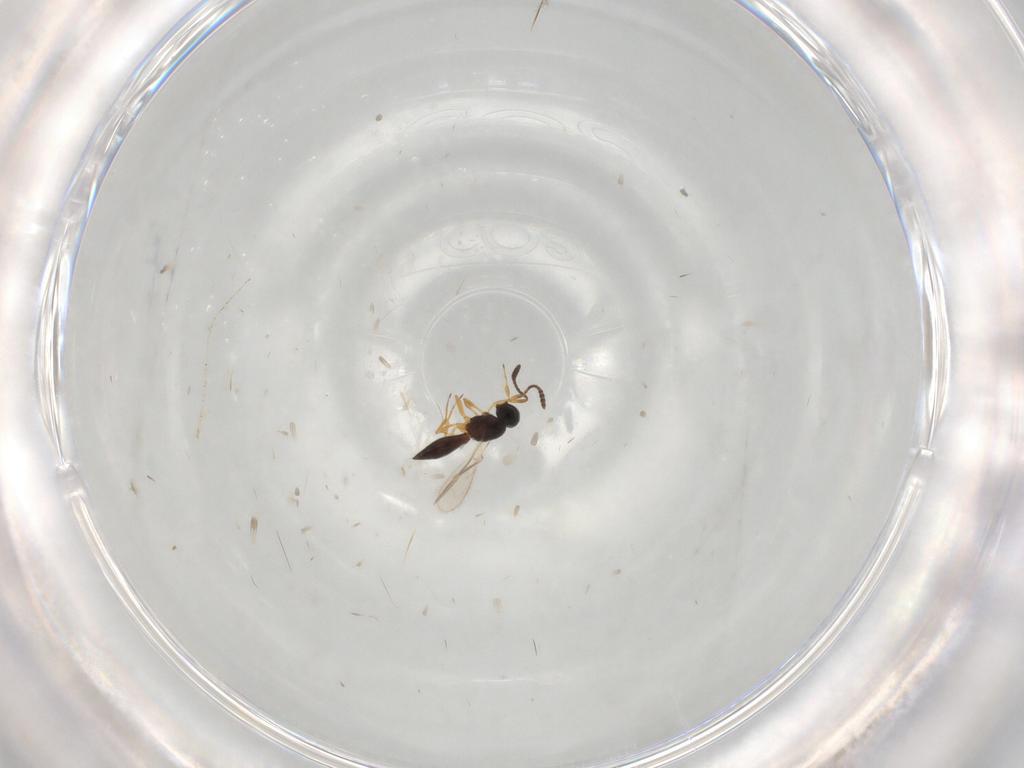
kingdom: Animalia
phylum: Arthropoda
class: Insecta
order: Hymenoptera
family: Scelionidae
